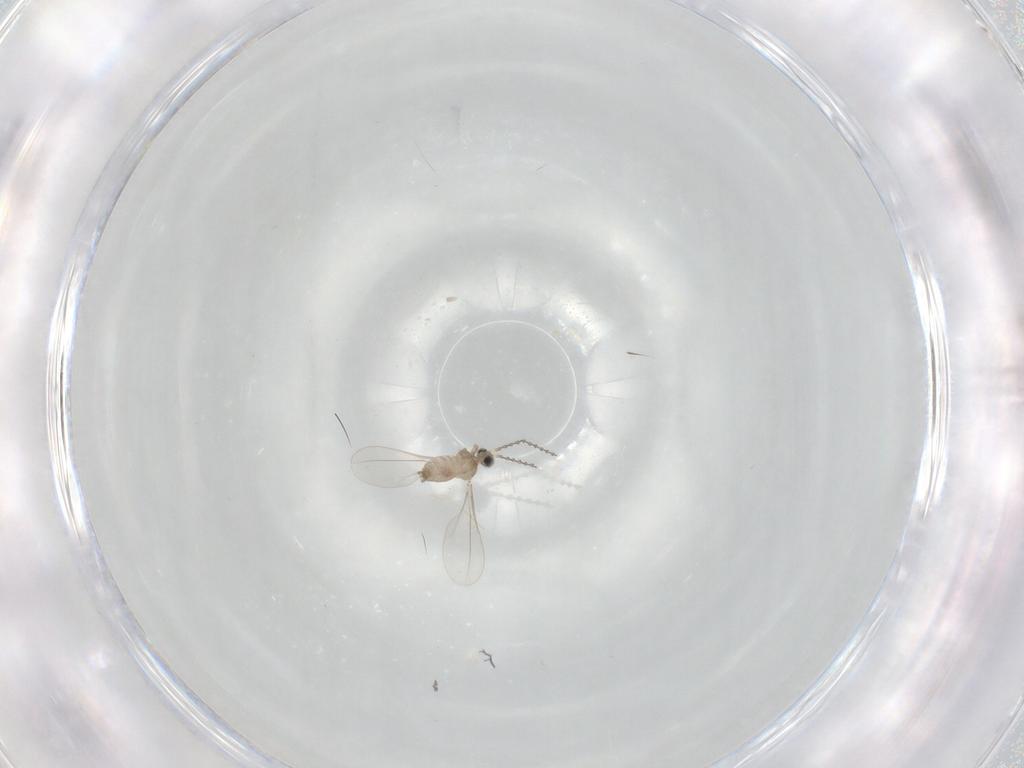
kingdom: Animalia
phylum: Arthropoda
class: Insecta
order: Diptera
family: Cecidomyiidae
